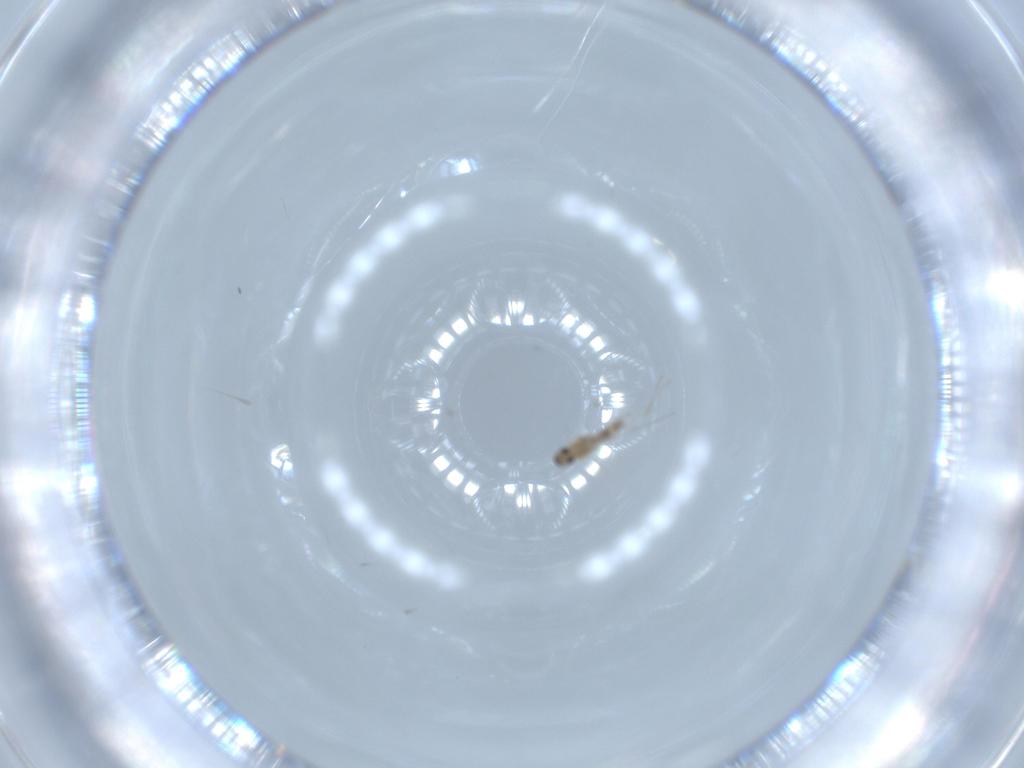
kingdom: Animalia
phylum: Arthropoda
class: Insecta
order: Diptera
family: Cecidomyiidae
